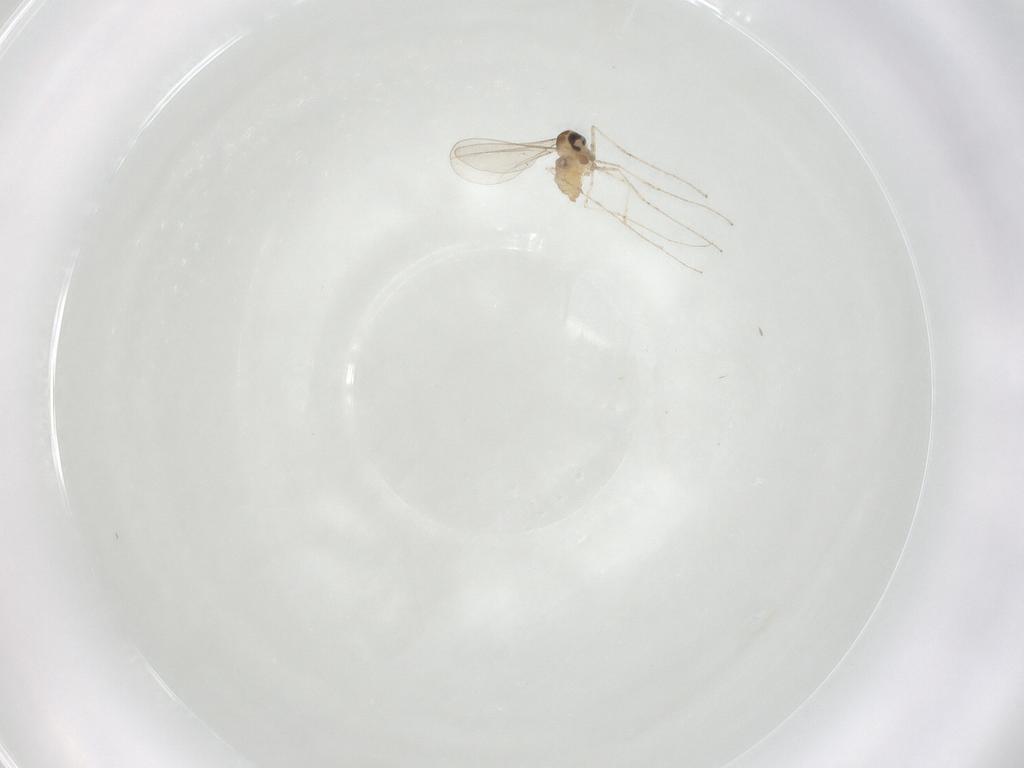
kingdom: Animalia
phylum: Arthropoda
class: Insecta
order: Diptera
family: Cecidomyiidae
